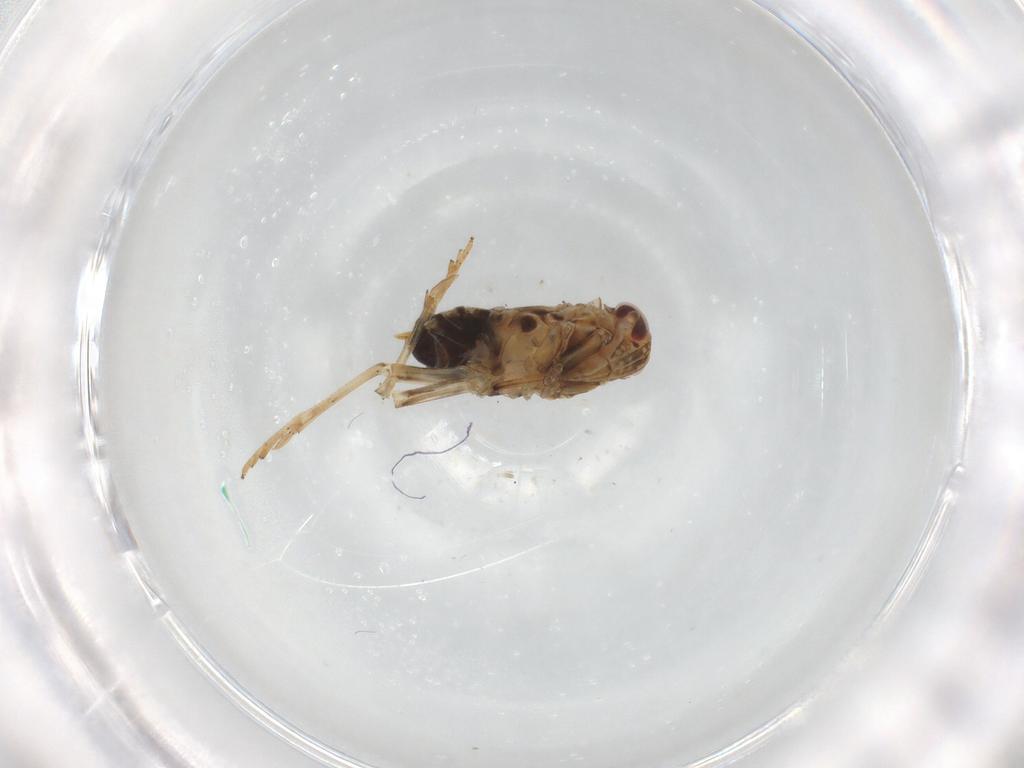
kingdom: Animalia
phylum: Arthropoda
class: Insecta
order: Hemiptera
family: Delphacidae
